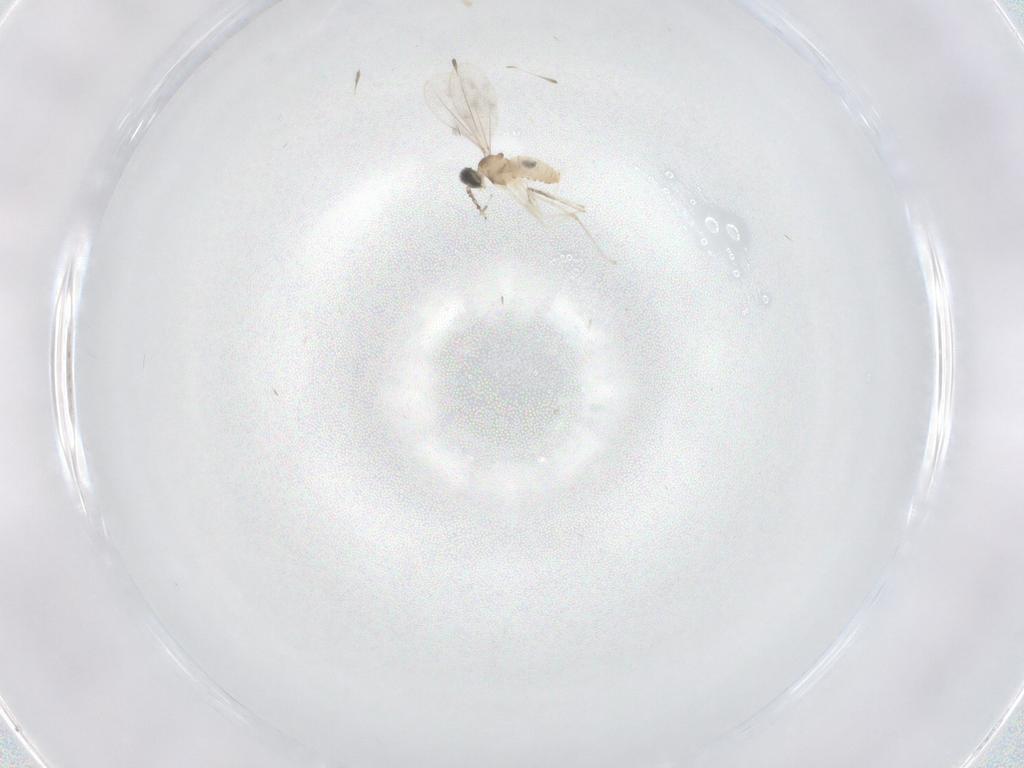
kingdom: Animalia
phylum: Arthropoda
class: Insecta
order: Diptera
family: Cecidomyiidae
